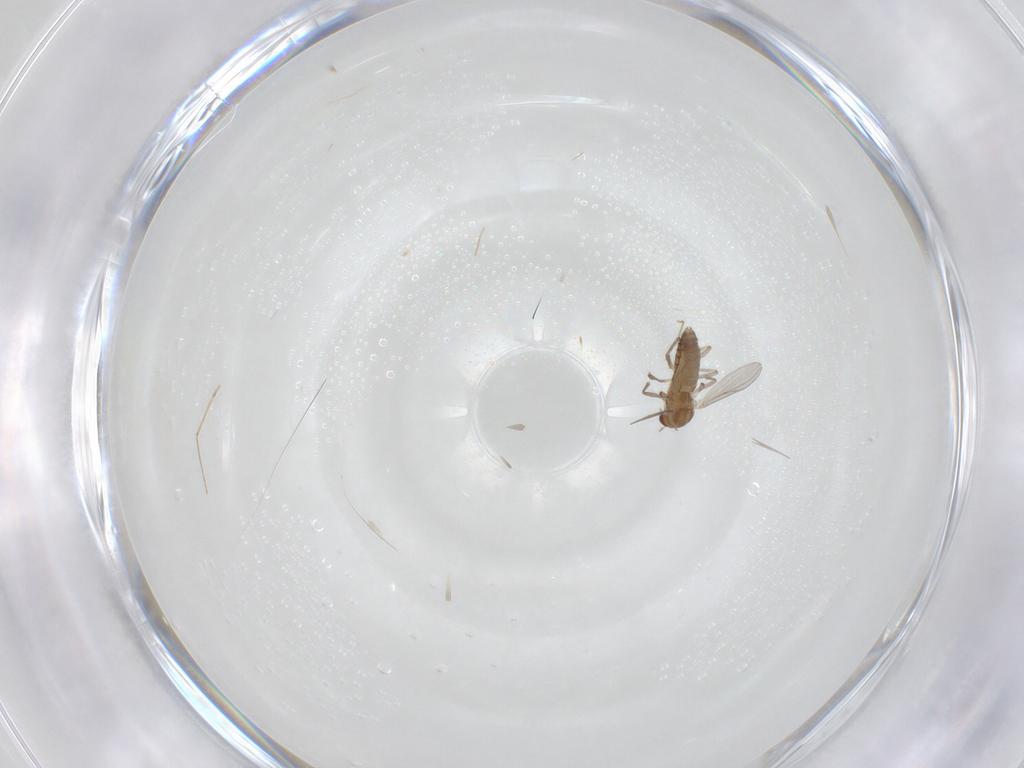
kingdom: Animalia
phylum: Arthropoda
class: Insecta
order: Diptera
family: Chironomidae
